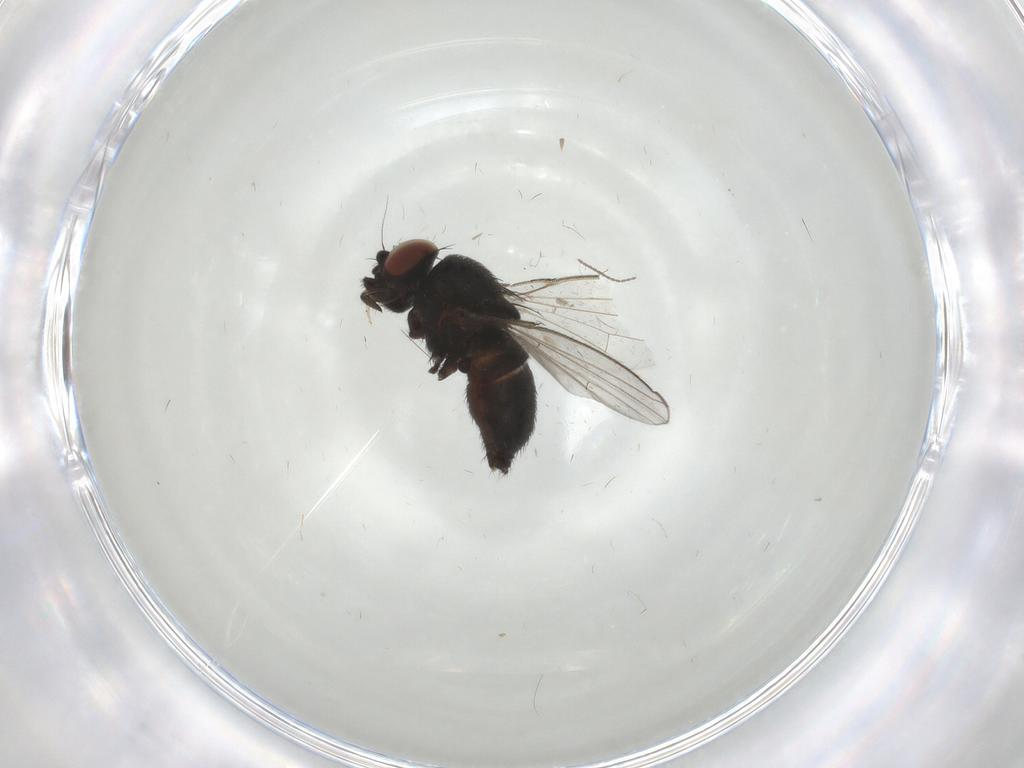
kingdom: Animalia
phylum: Arthropoda
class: Insecta
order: Diptera
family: Milichiidae
